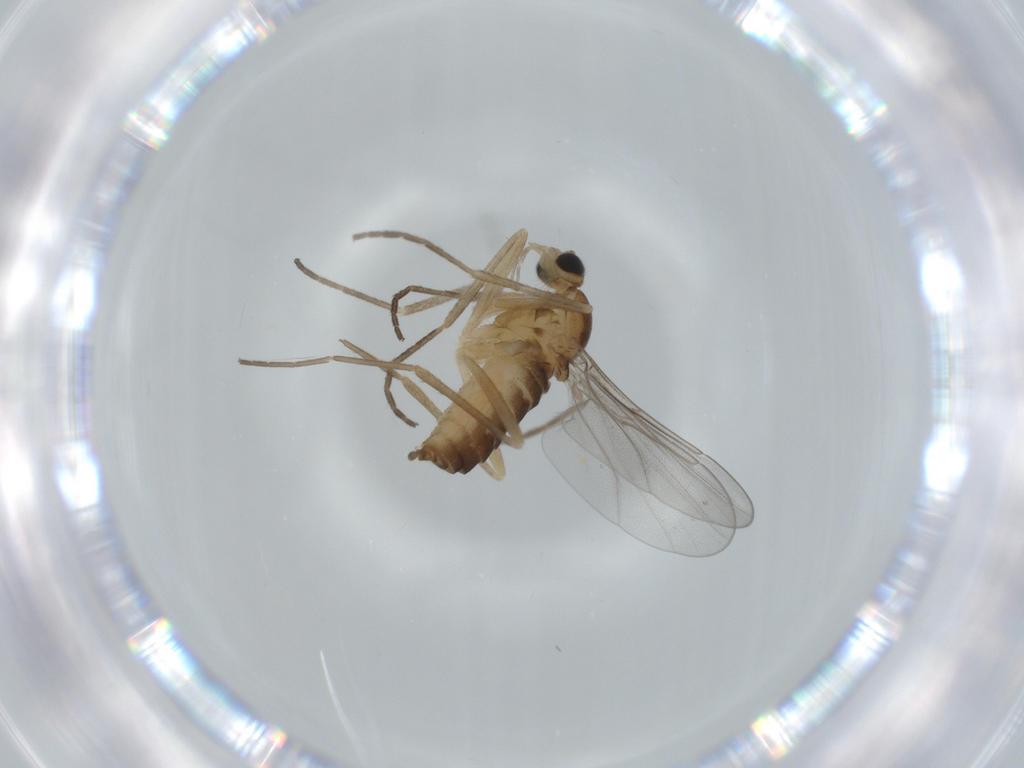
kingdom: Animalia
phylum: Arthropoda
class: Insecta
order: Diptera
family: Cecidomyiidae
